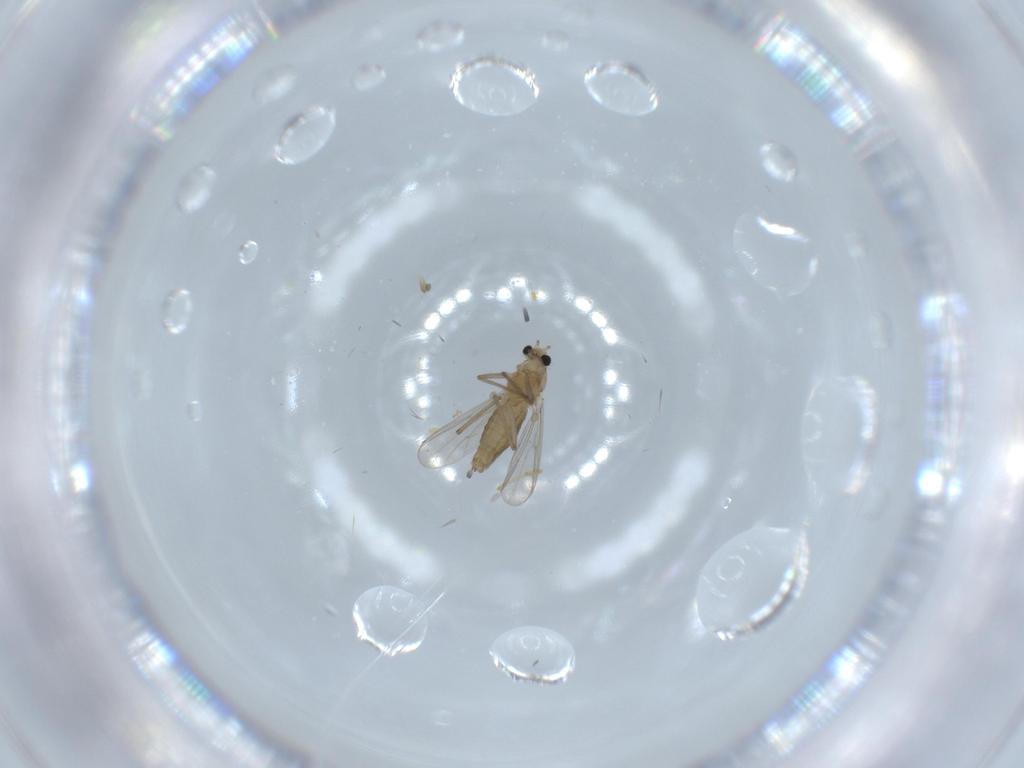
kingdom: Animalia
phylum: Arthropoda
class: Insecta
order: Diptera
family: Chironomidae
